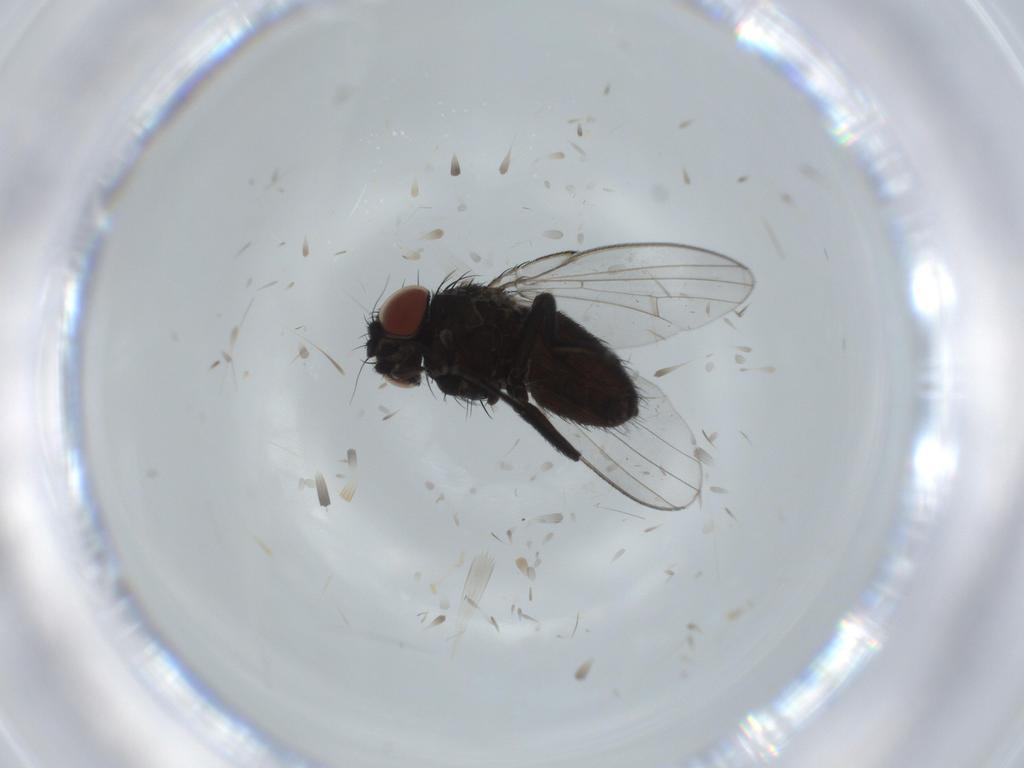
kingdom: Animalia
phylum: Arthropoda
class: Insecta
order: Diptera
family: Milichiidae
